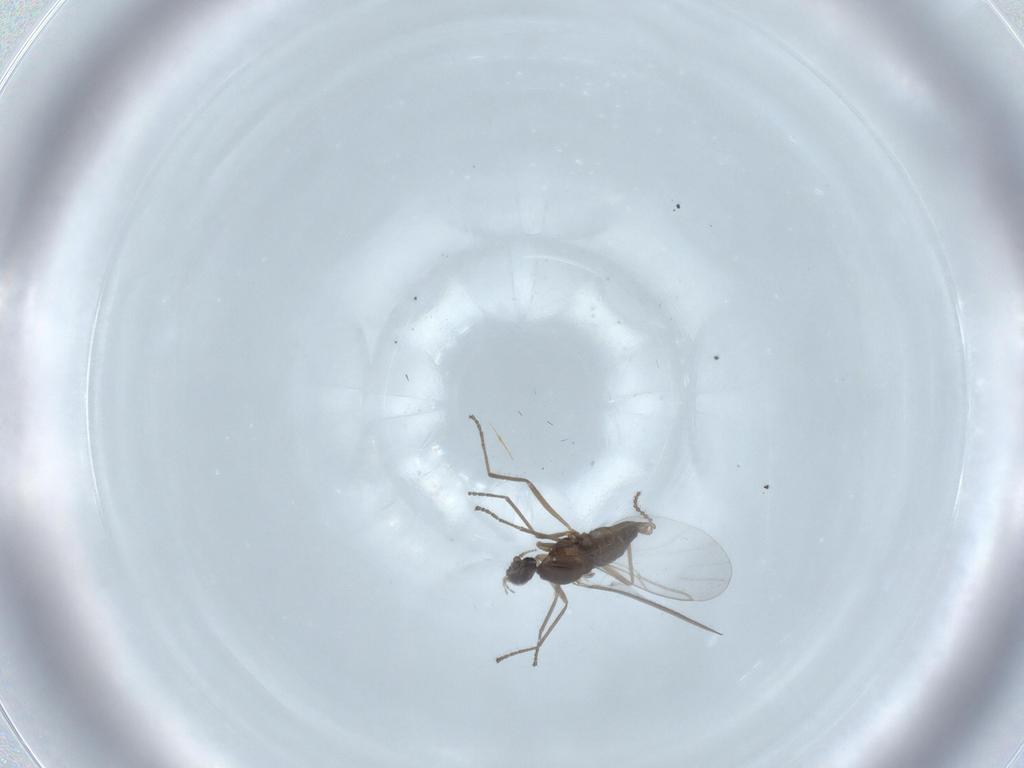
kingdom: Animalia
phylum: Arthropoda
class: Insecta
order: Diptera
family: Cecidomyiidae
